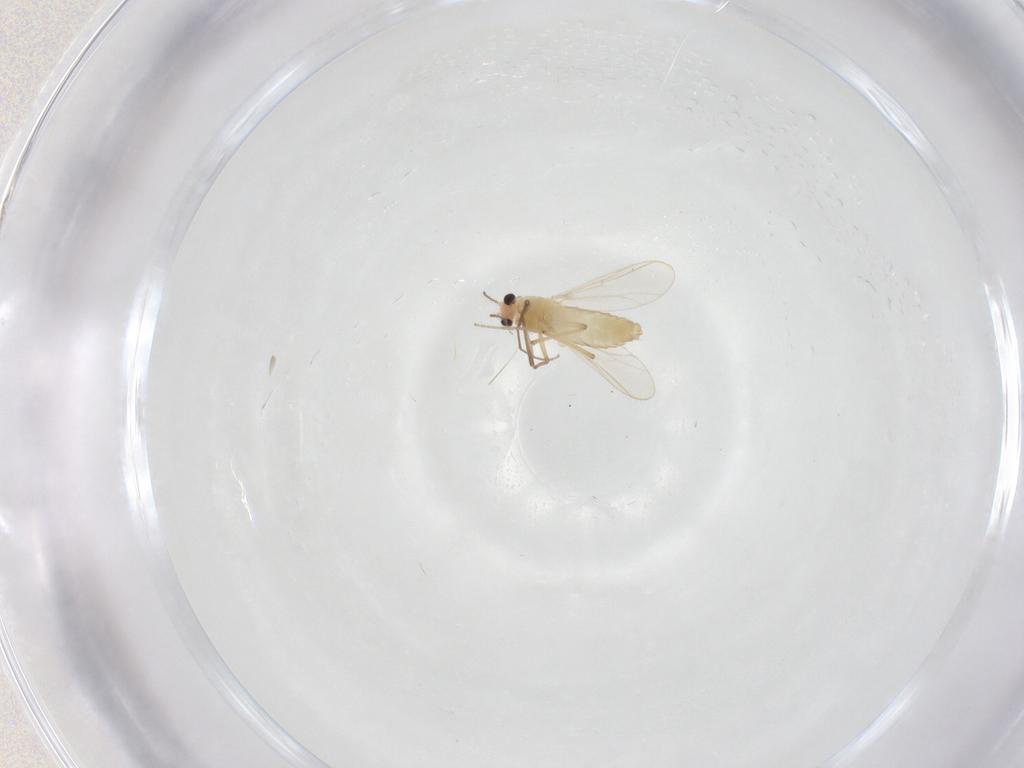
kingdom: Animalia
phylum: Arthropoda
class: Insecta
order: Diptera
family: Chironomidae
